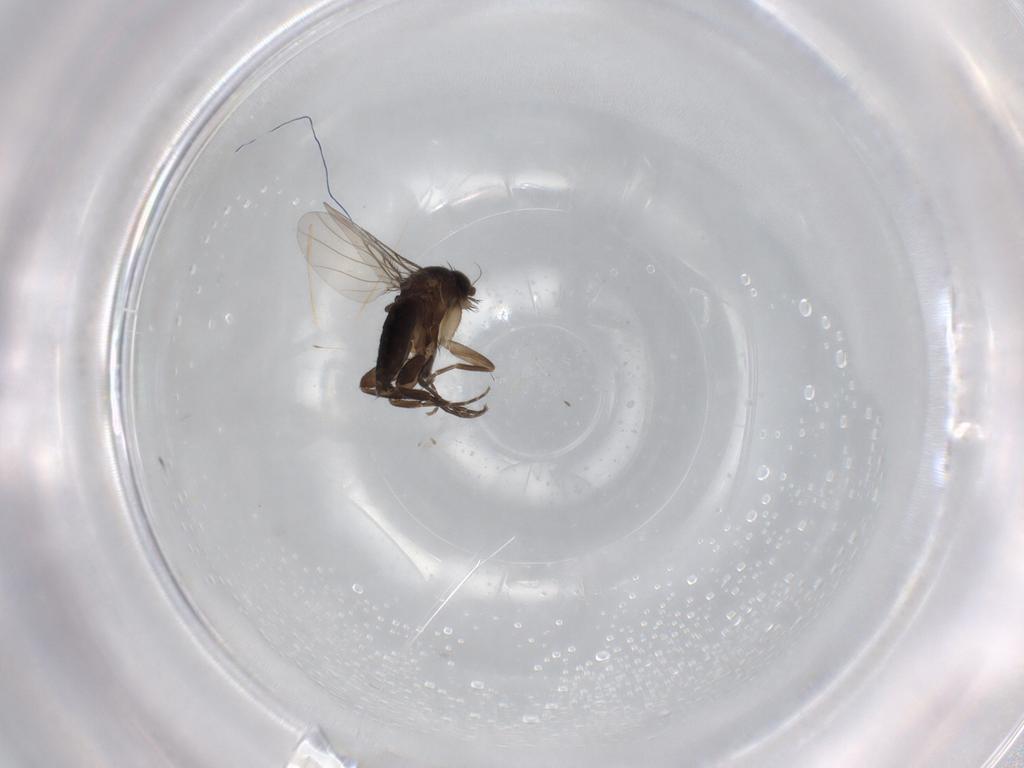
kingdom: Animalia
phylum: Arthropoda
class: Insecta
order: Diptera
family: Phoridae
